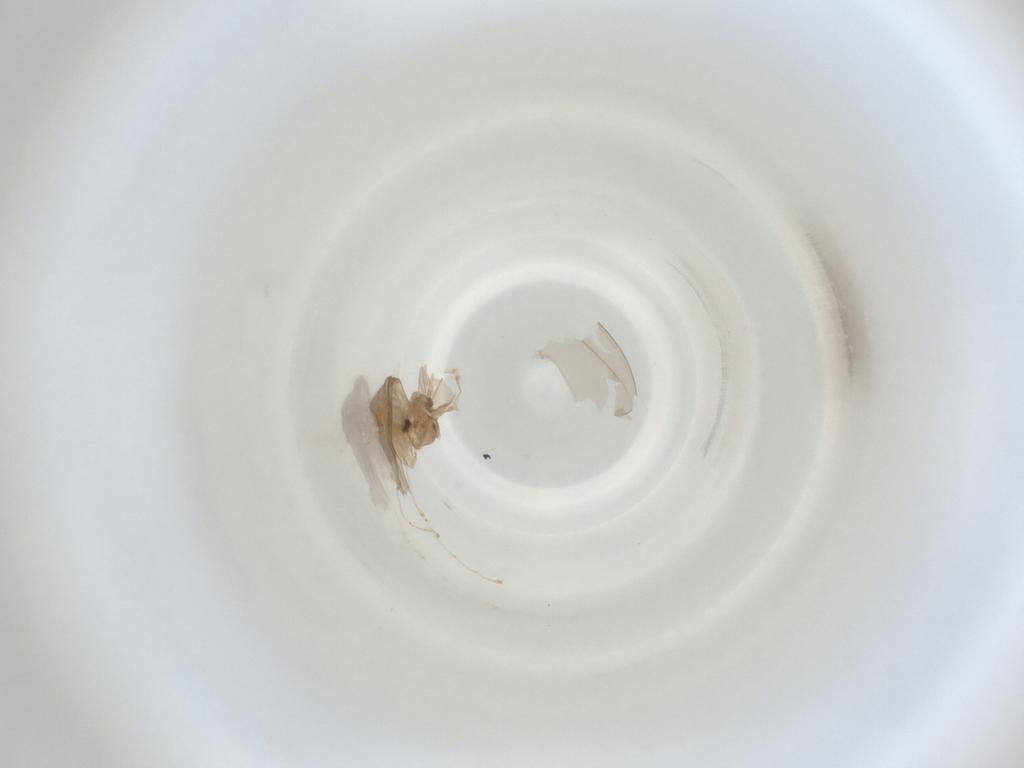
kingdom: Animalia
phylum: Arthropoda
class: Insecta
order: Diptera
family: Cecidomyiidae
